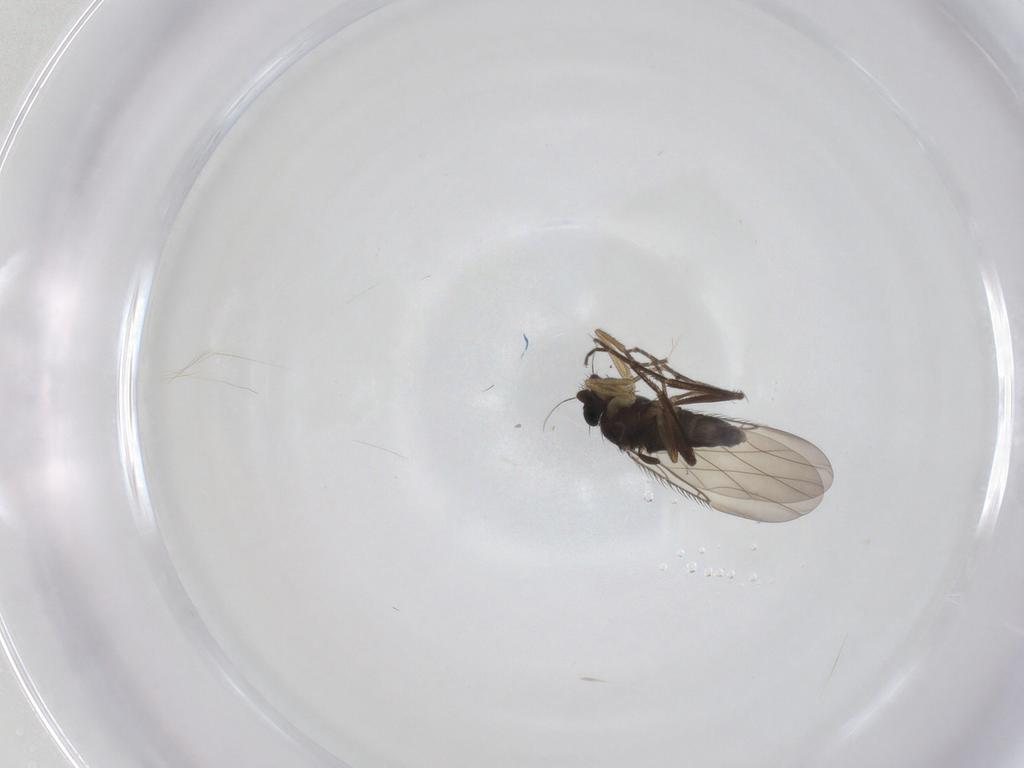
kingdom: Animalia
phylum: Arthropoda
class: Insecta
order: Diptera
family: Phoridae
